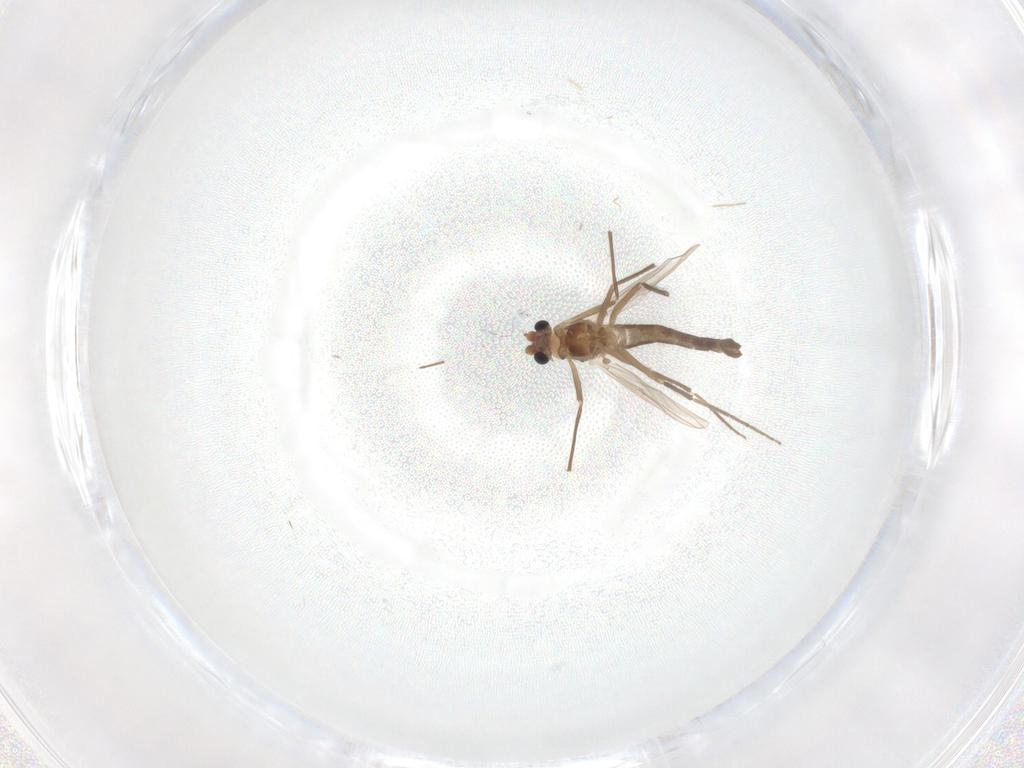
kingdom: Animalia
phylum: Arthropoda
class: Insecta
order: Diptera
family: Chironomidae
